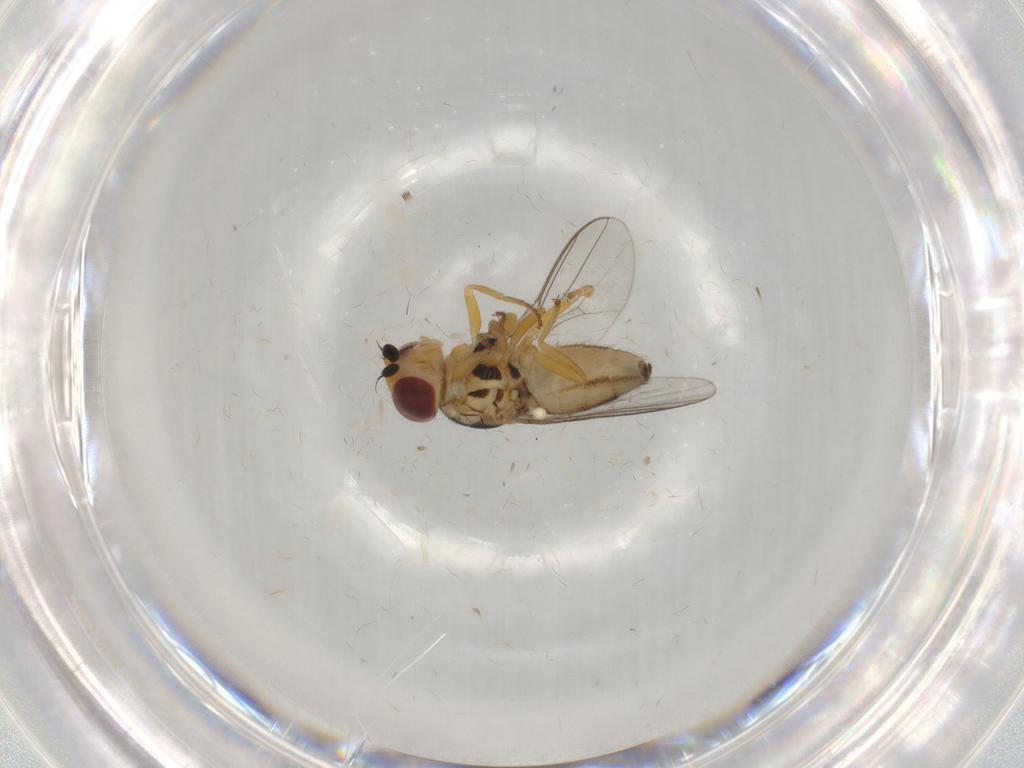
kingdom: Animalia
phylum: Arthropoda
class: Insecta
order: Diptera
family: Chloropidae
